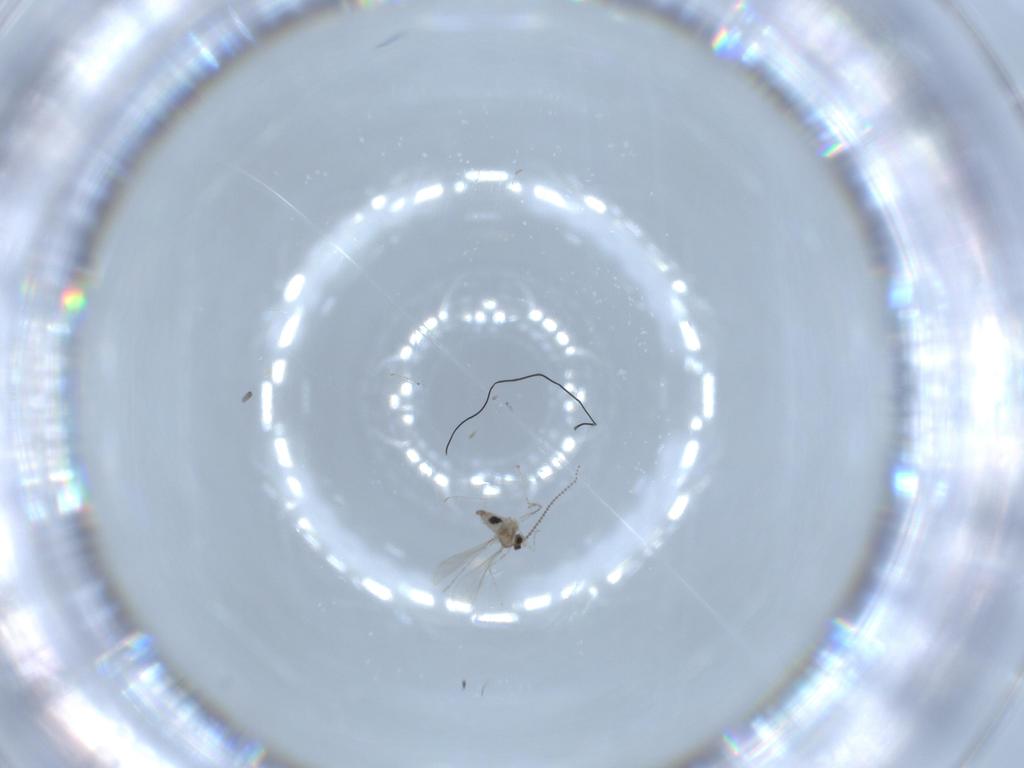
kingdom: Animalia
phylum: Arthropoda
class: Insecta
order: Diptera
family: Cecidomyiidae
